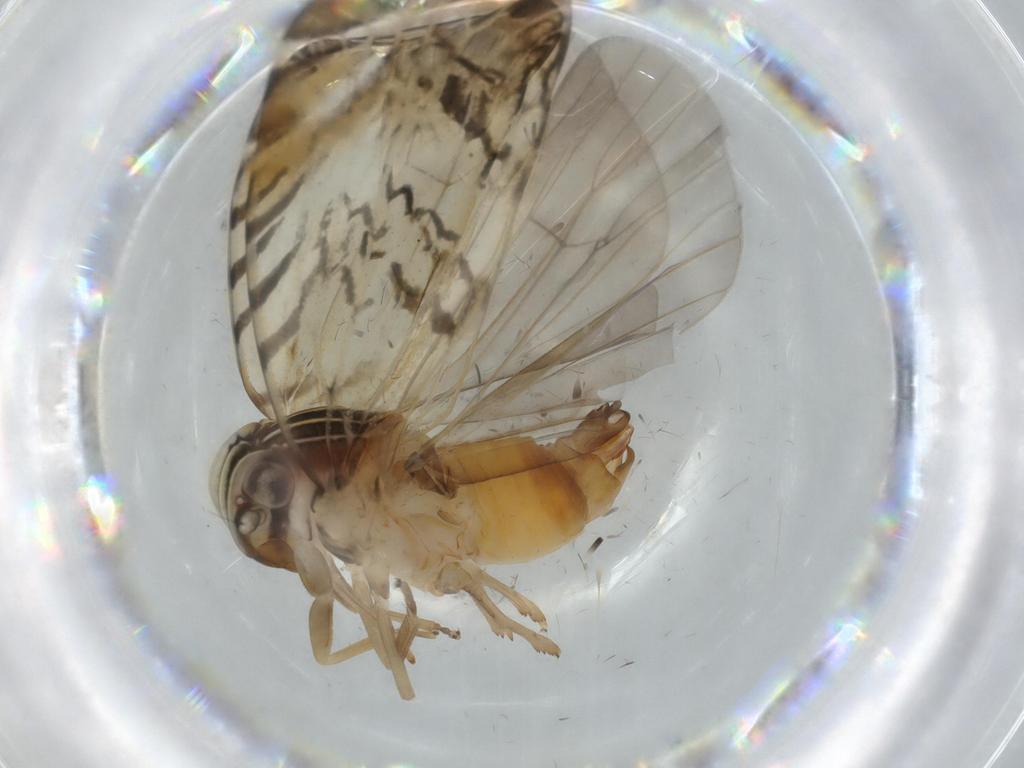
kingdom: Animalia
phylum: Arthropoda
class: Insecta
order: Hemiptera
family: Cixiidae
